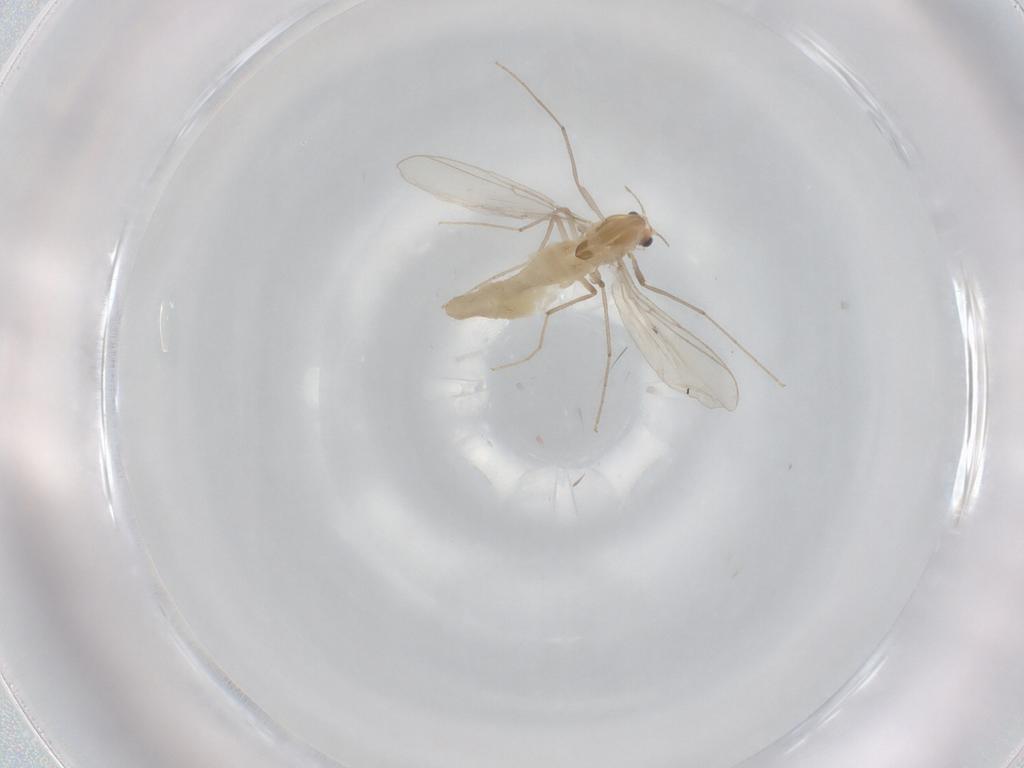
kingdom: Animalia
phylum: Arthropoda
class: Insecta
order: Diptera
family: Chironomidae
